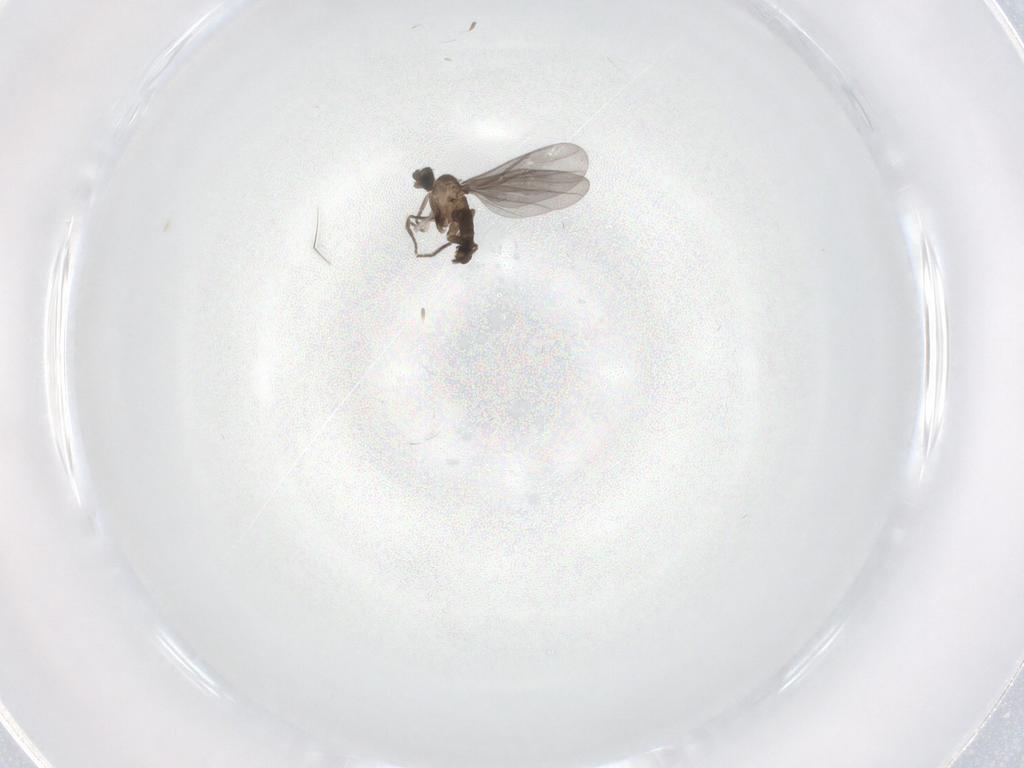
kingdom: Animalia
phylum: Arthropoda
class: Insecta
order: Diptera
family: Phoridae
